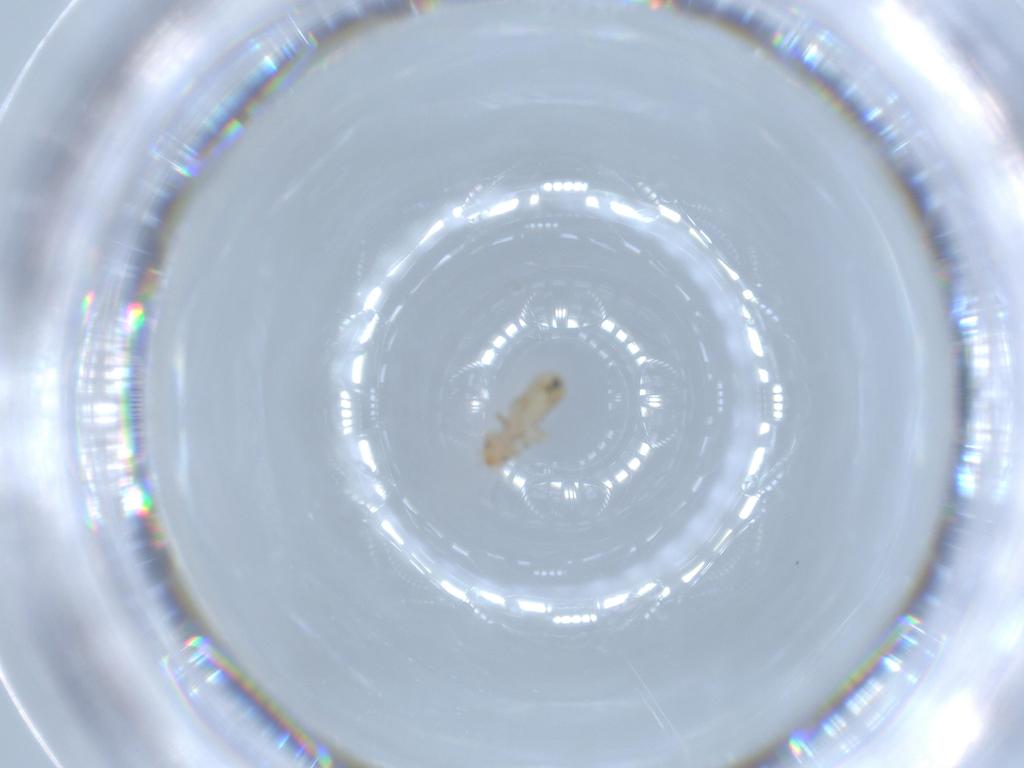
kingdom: Animalia
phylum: Arthropoda
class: Insecta
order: Psocodea
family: Liposcelididae
